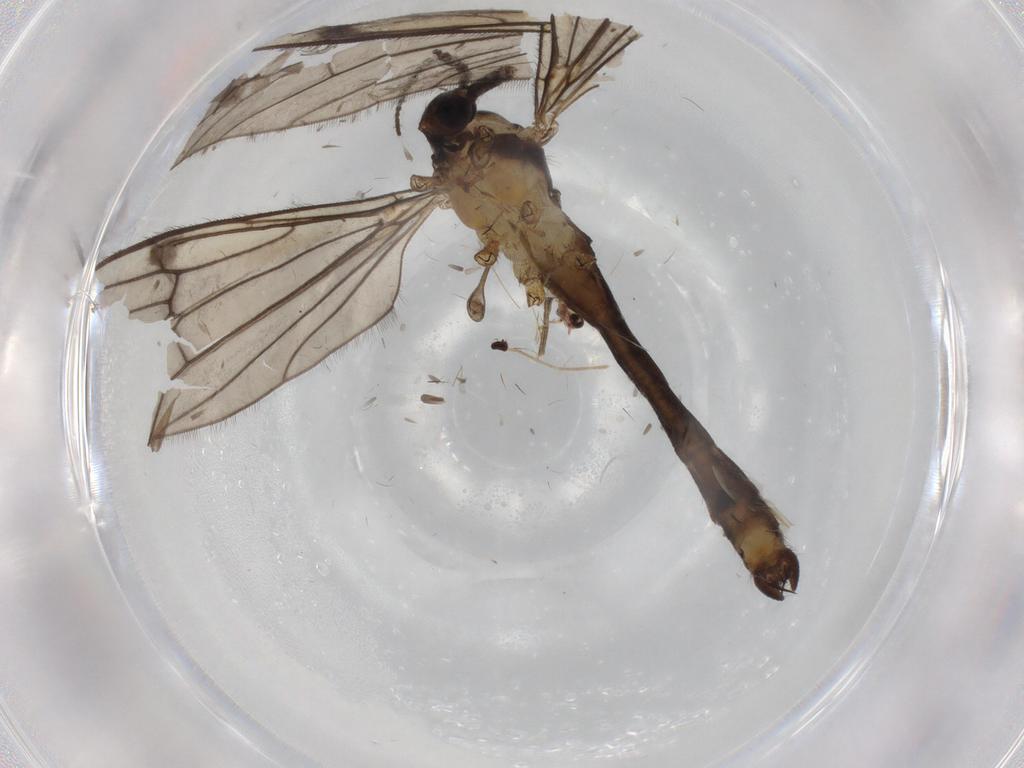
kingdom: Animalia
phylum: Arthropoda
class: Insecta
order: Diptera
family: Limoniidae
